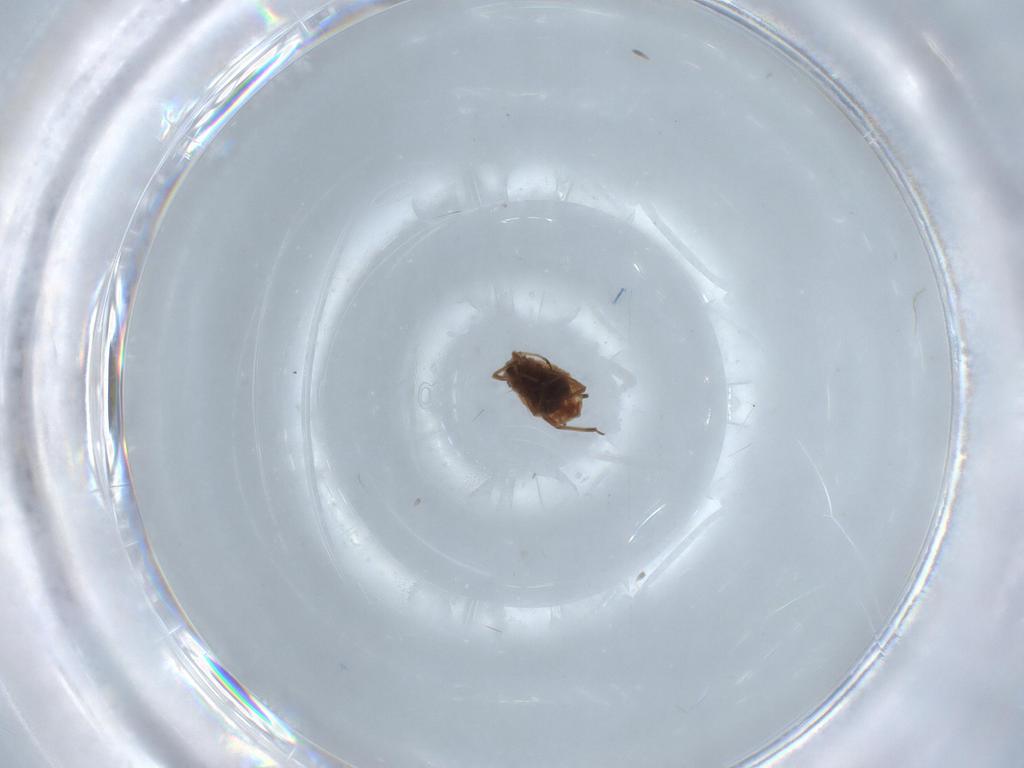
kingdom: Animalia
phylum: Arthropoda
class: Insecta
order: Hemiptera
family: Aphididae
